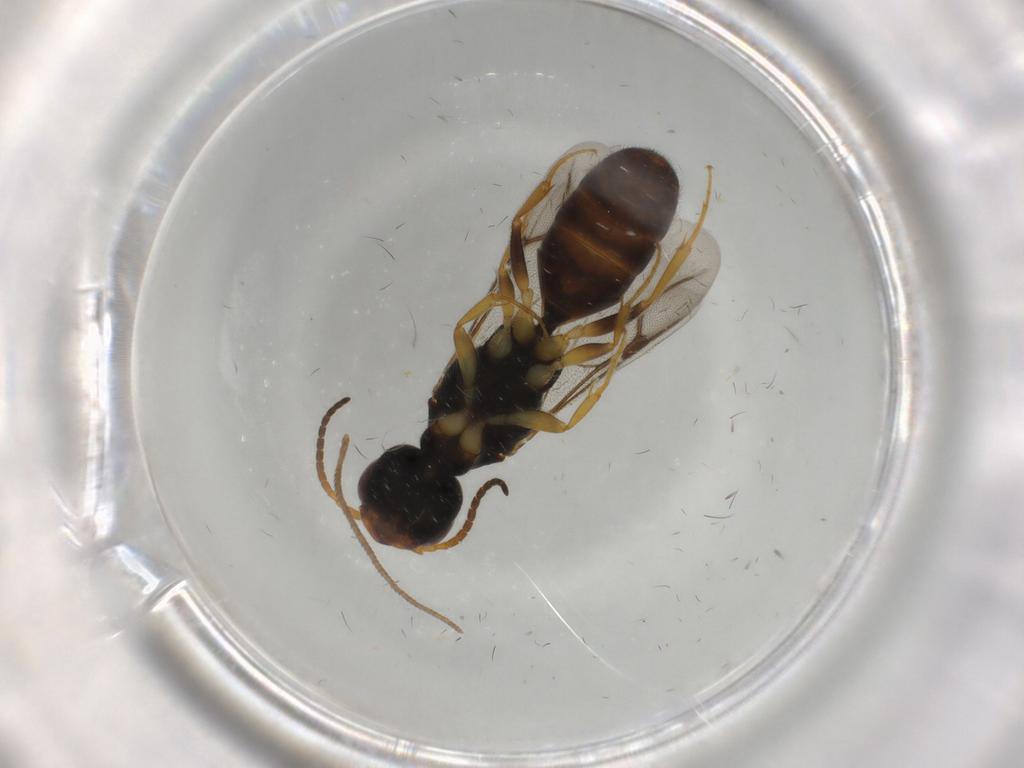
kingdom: Animalia
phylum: Arthropoda
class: Insecta
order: Hymenoptera
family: Bethylidae
